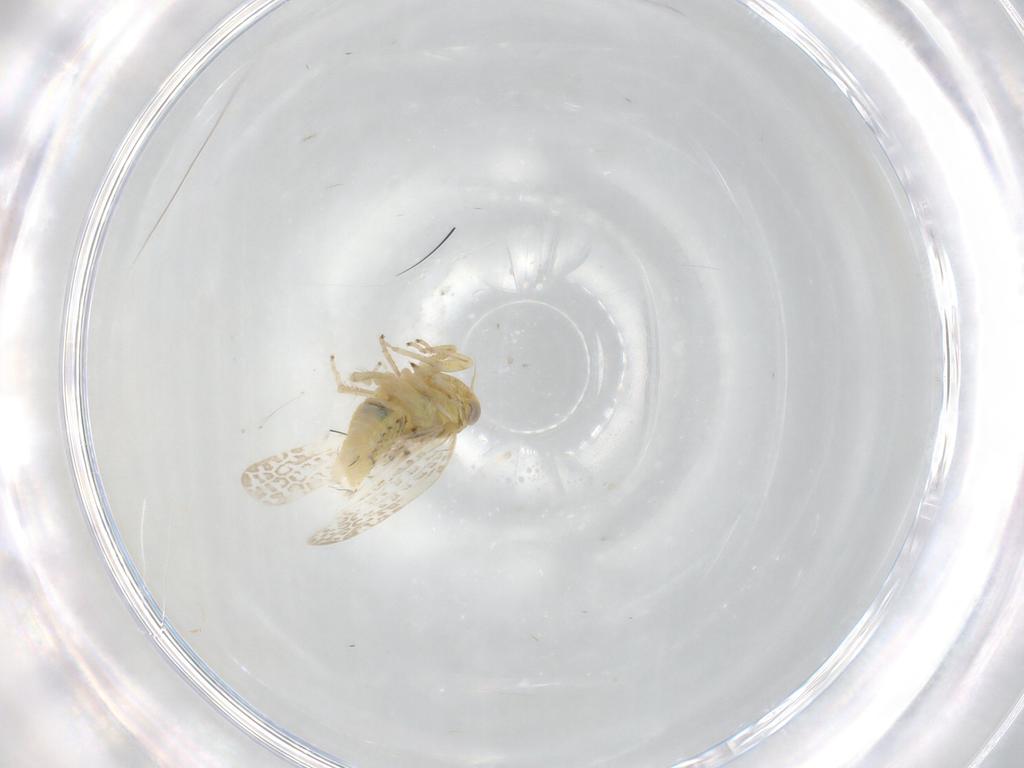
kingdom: Animalia
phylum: Arthropoda
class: Insecta
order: Hemiptera
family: Cicadellidae
